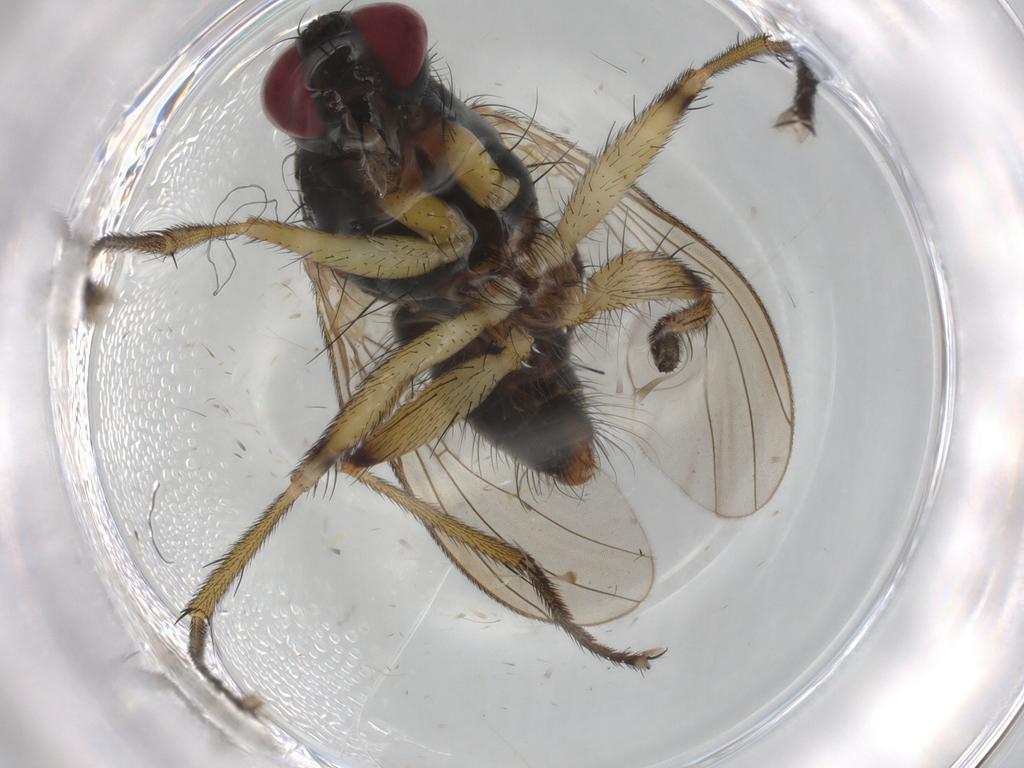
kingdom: Animalia
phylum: Arthropoda
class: Insecta
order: Diptera
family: Chironomidae
